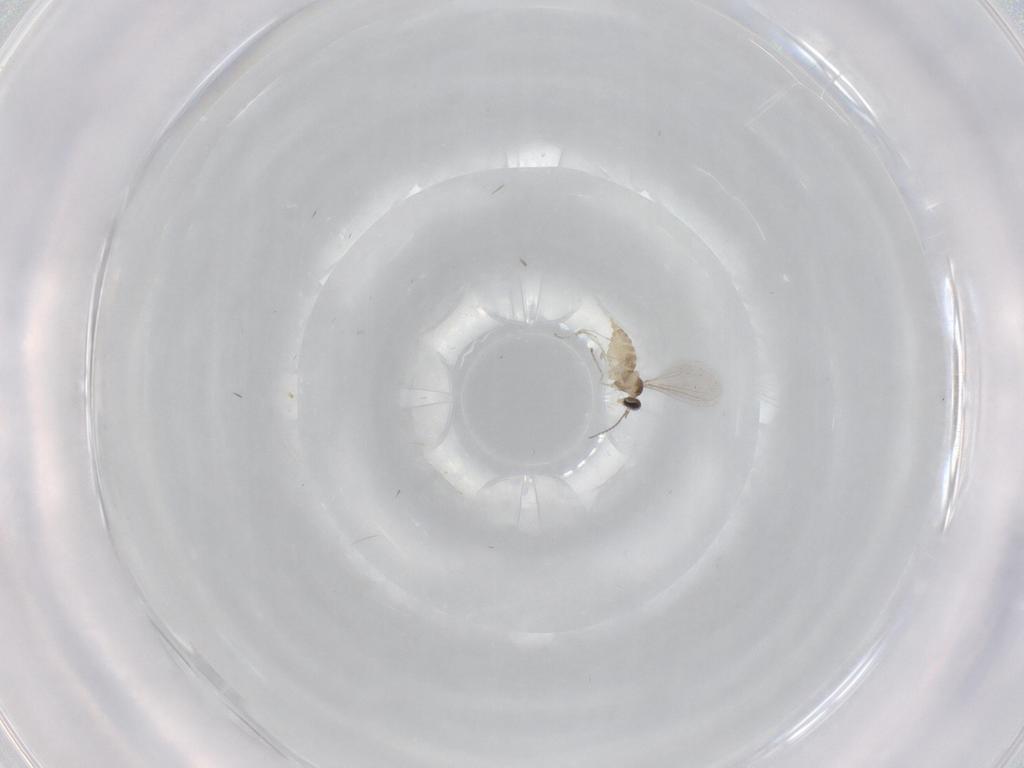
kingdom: Animalia
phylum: Arthropoda
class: Insecta
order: Diptera
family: Cecidomyiidae
